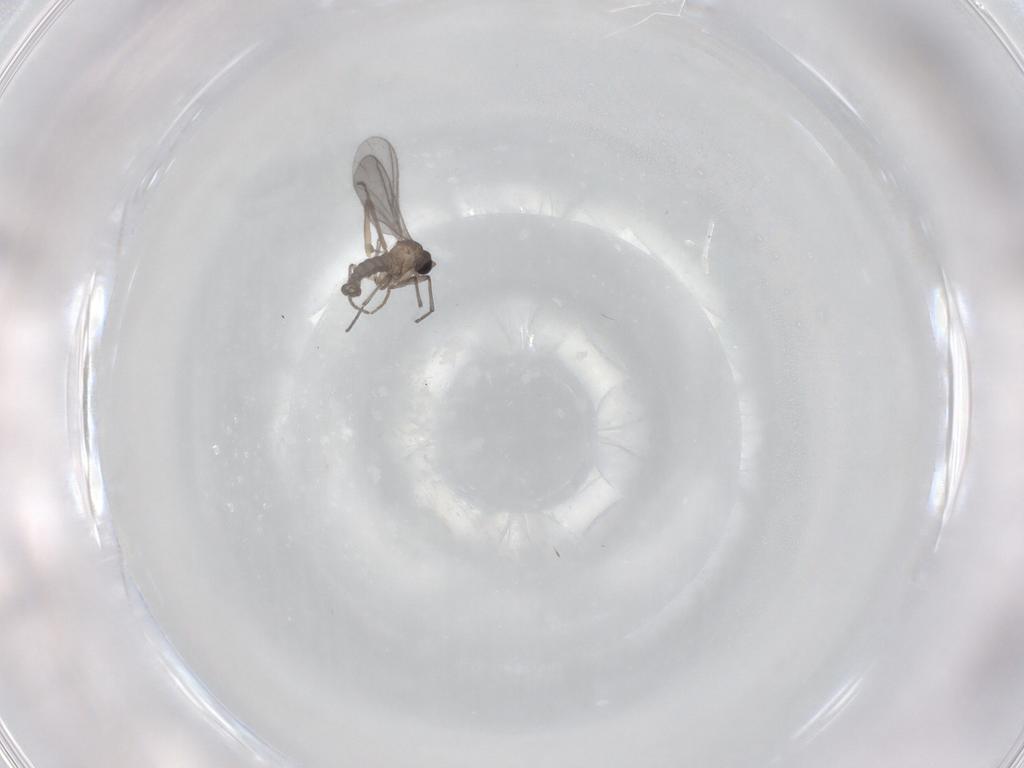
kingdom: Animalia
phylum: Arthropoda
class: Insecta
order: Diptera
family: Sciaridae
